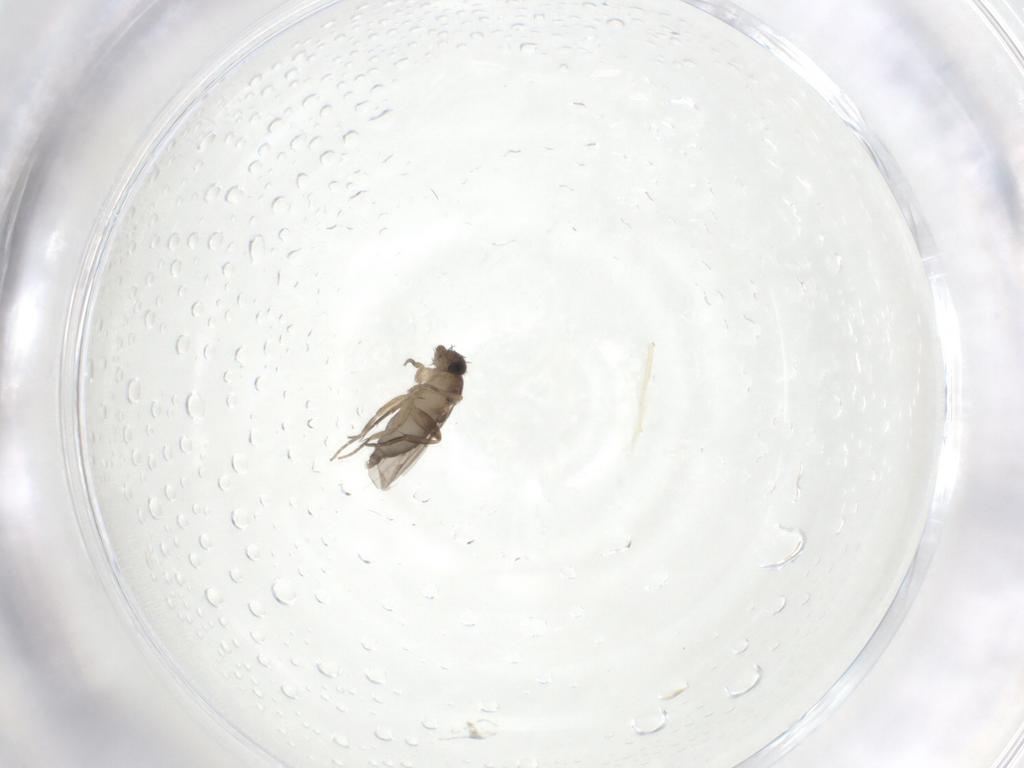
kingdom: Animalia
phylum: Arthropoda
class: Insecta
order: Diptera
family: Phoridae
